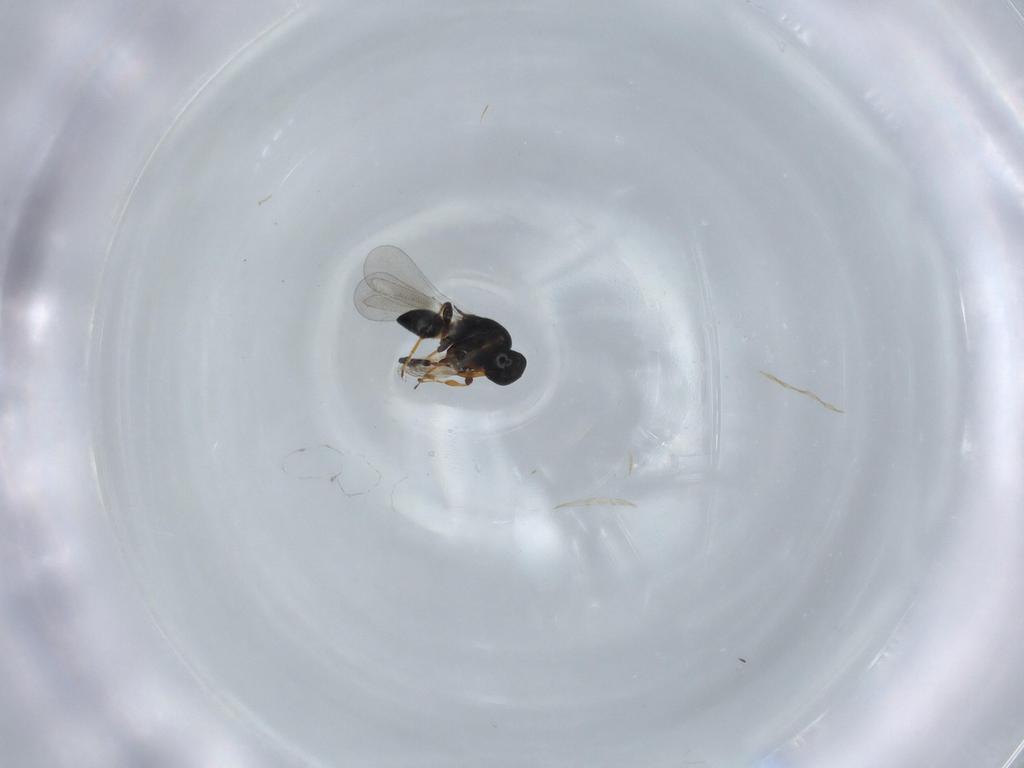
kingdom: Animalia
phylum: Arthropoda
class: Insecta
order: Hymenoptera
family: Platygastridae
